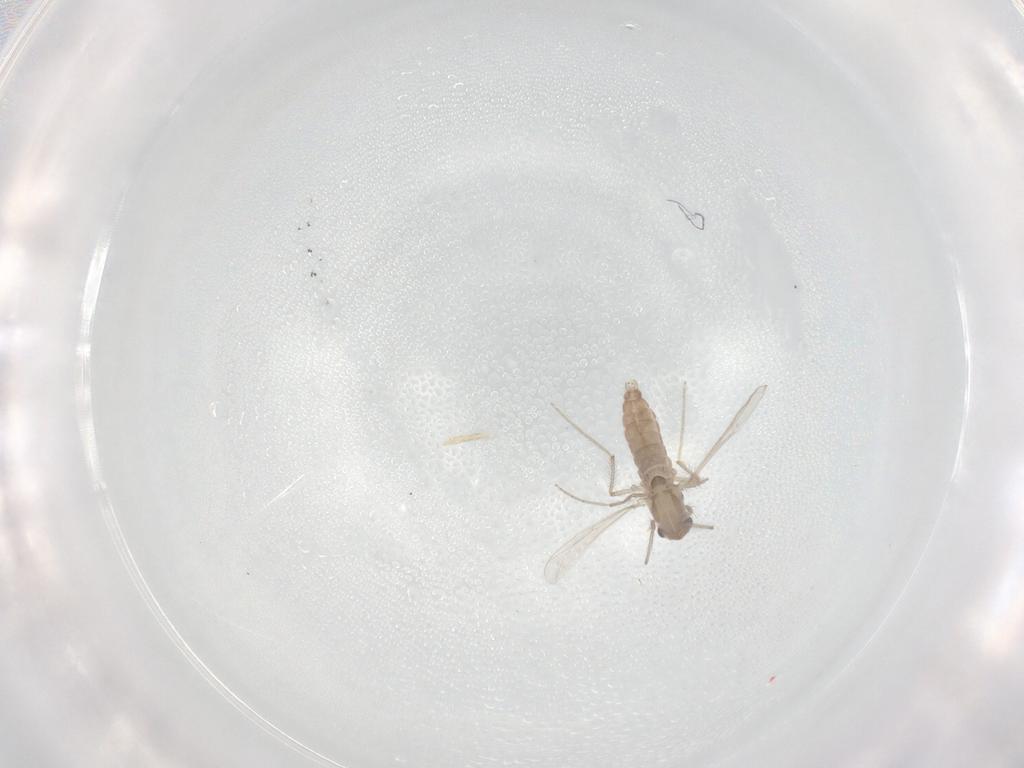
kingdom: Animalia
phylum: Arthropoda
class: Insecta
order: Diptera
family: Chironomidae
